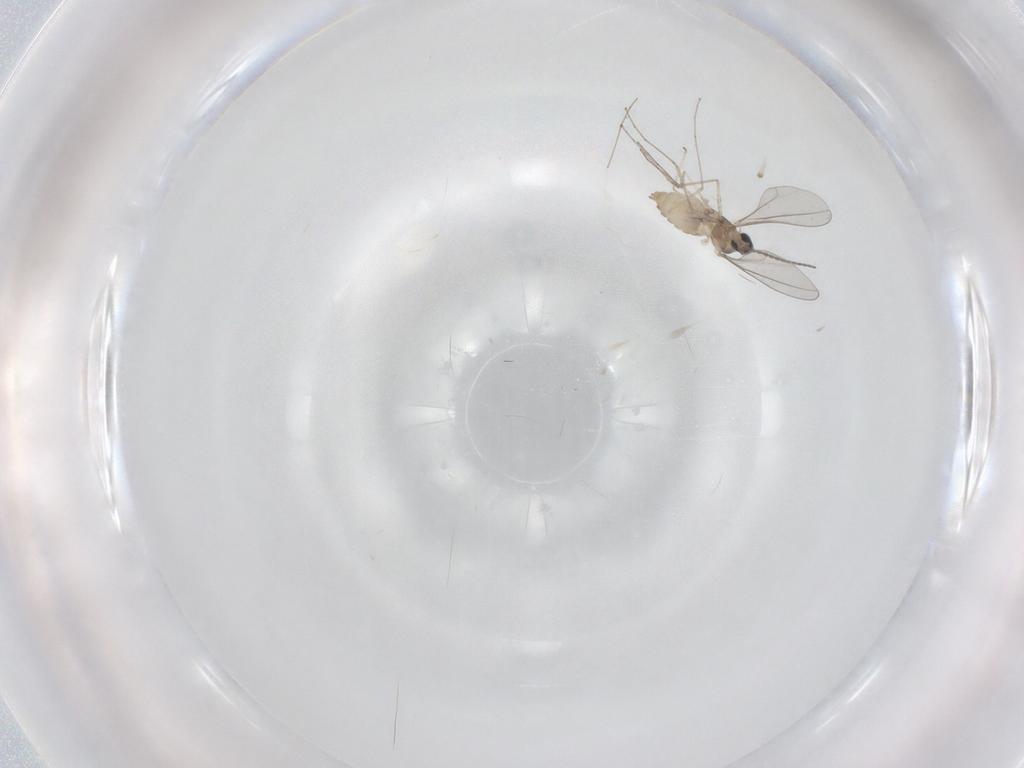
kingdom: Animalia
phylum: Arthropoda
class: Insecta
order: Diptera
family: Cecidomyiidae
